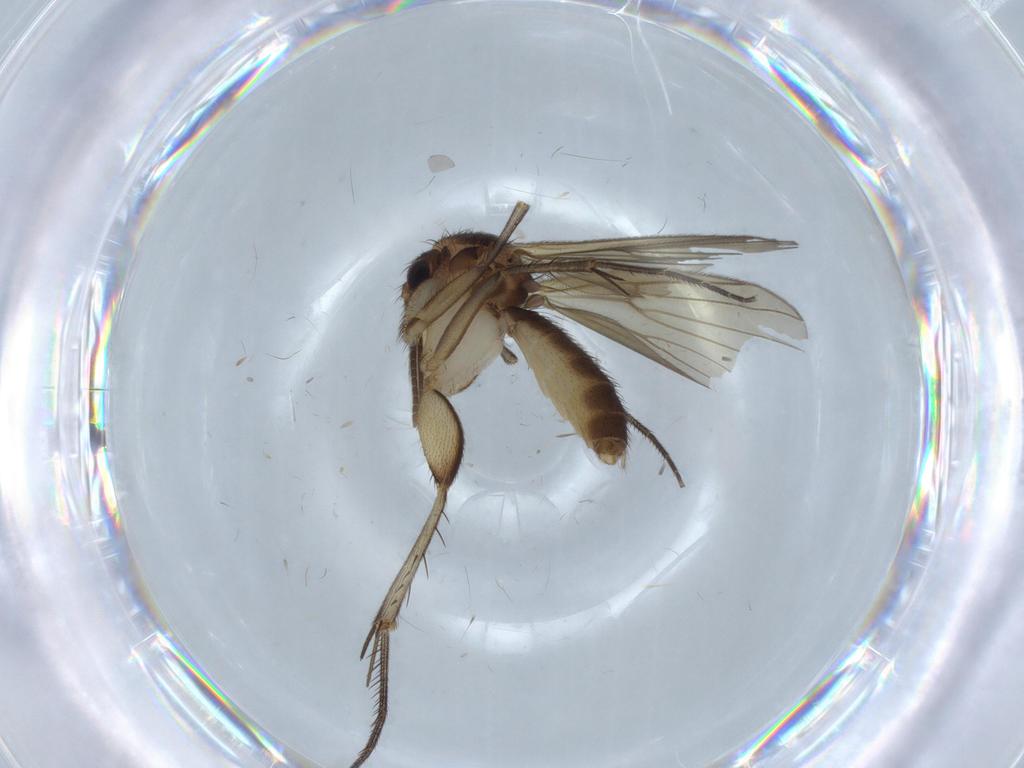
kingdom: Animalia
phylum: Arthropoda
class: Insecta
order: Diptera
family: Agromyzidae
